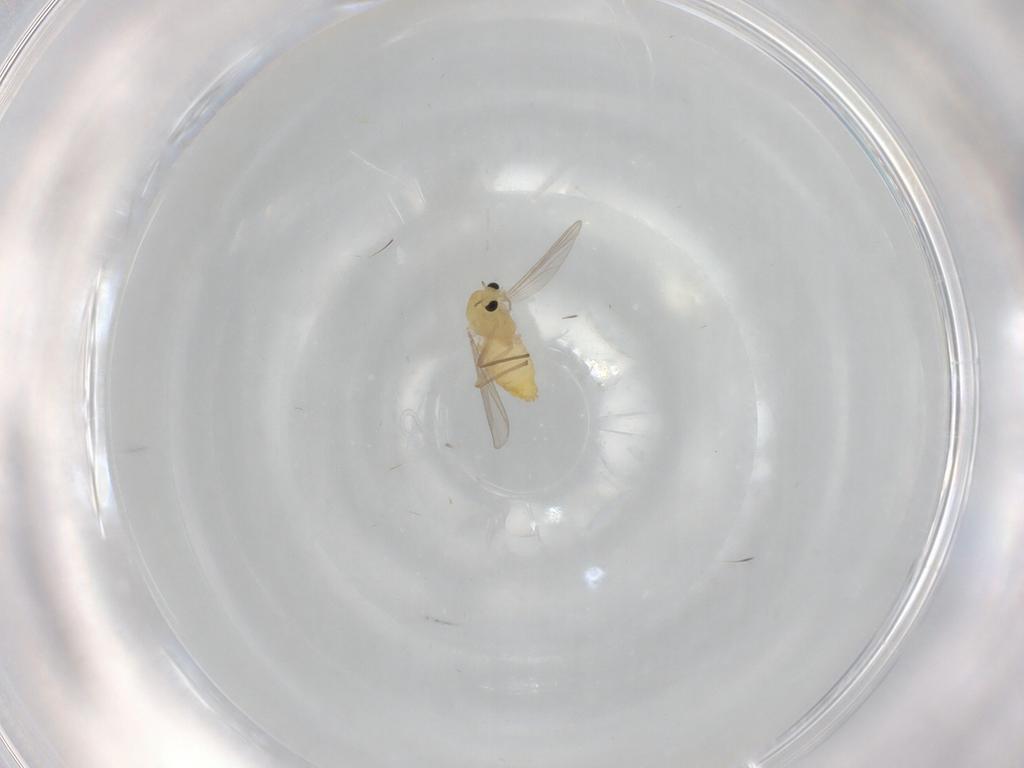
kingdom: Animalia
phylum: Arthropoda
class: Insecta
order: Diptera
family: Chironomidae
